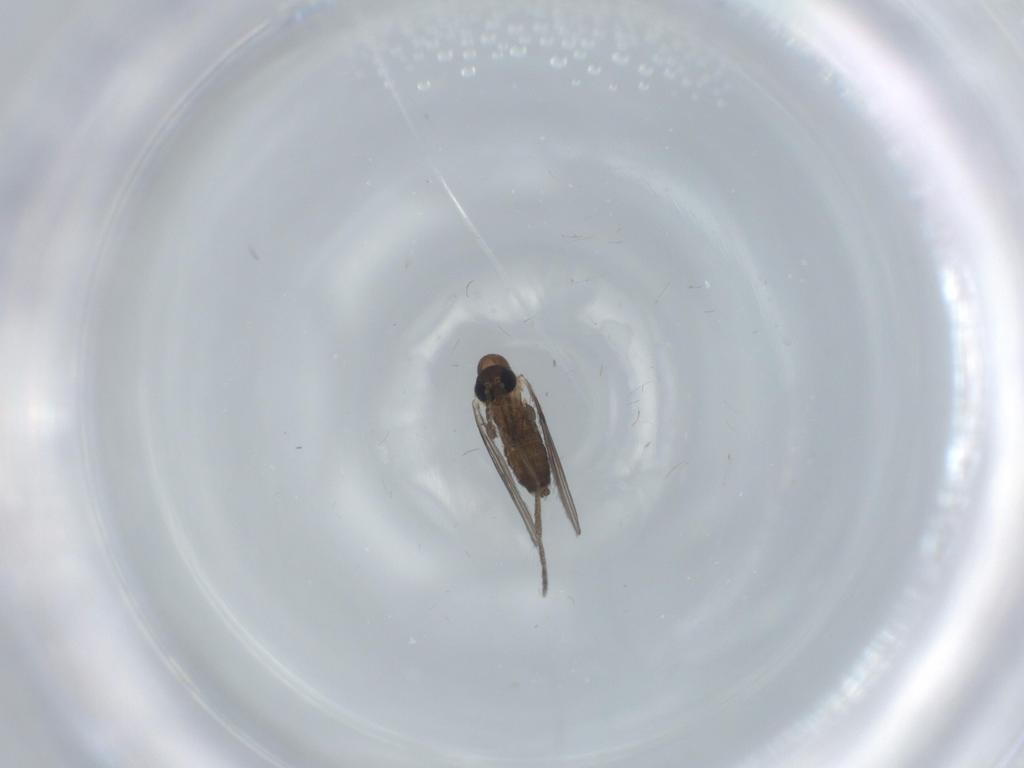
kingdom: Animalia
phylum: Arthropoda
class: Insecta
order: Diptera
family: Psychodidae
